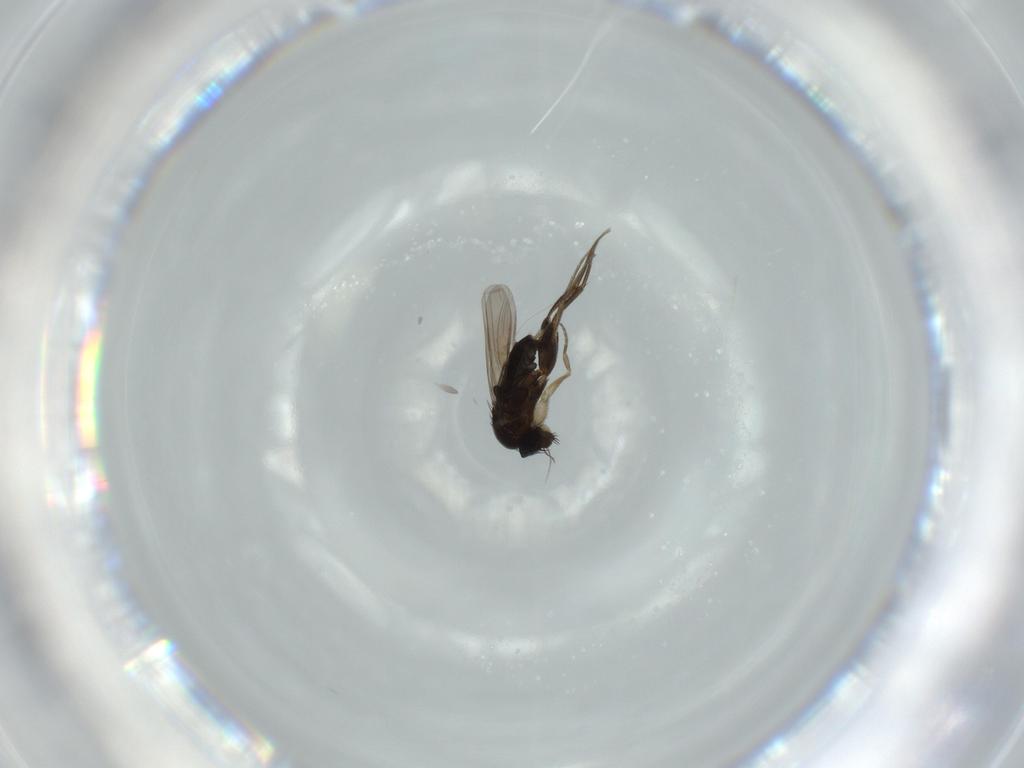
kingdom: Animalia
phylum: Arthropoda
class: Insecta
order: Diptera
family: Phoridae
